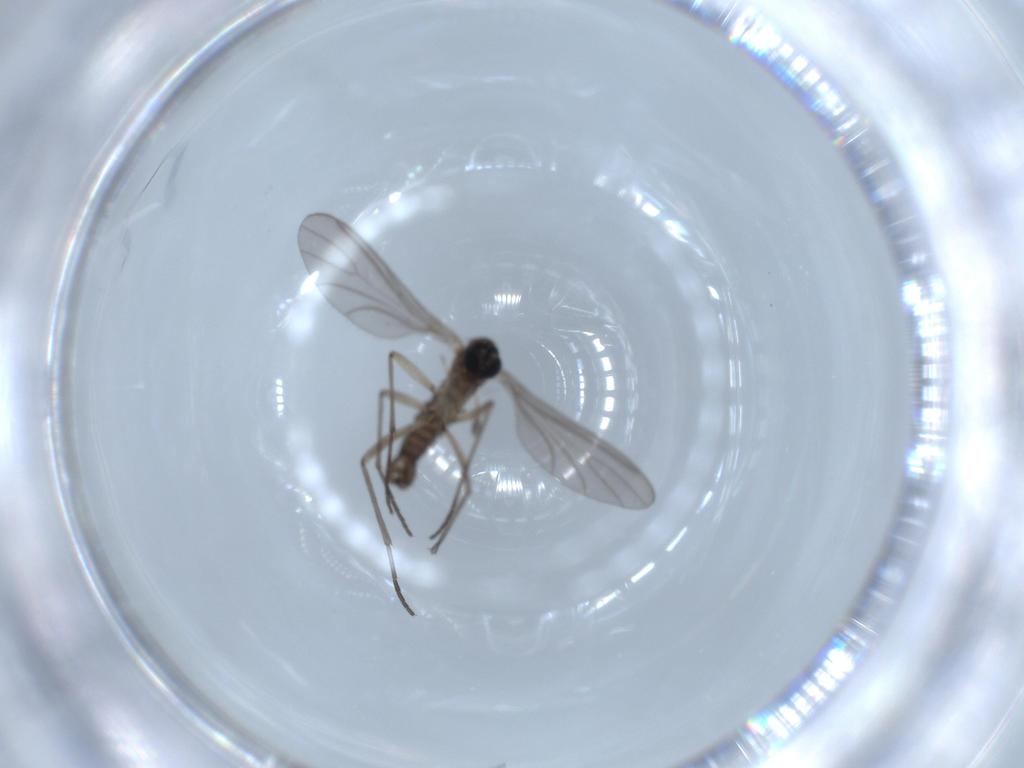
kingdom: Animalia
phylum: Arthropoda
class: Insecta
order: Diptera
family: Sciaridae
